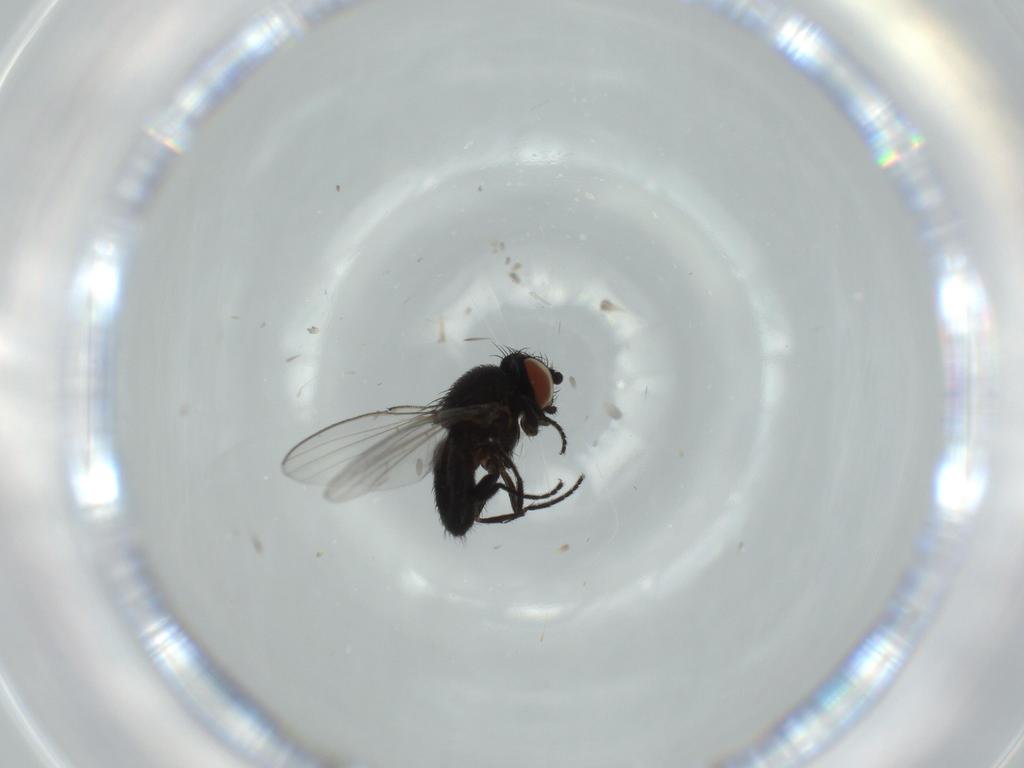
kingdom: Animalia
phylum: Arthropoda
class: Insecta
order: Diptera
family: Milichiidae
